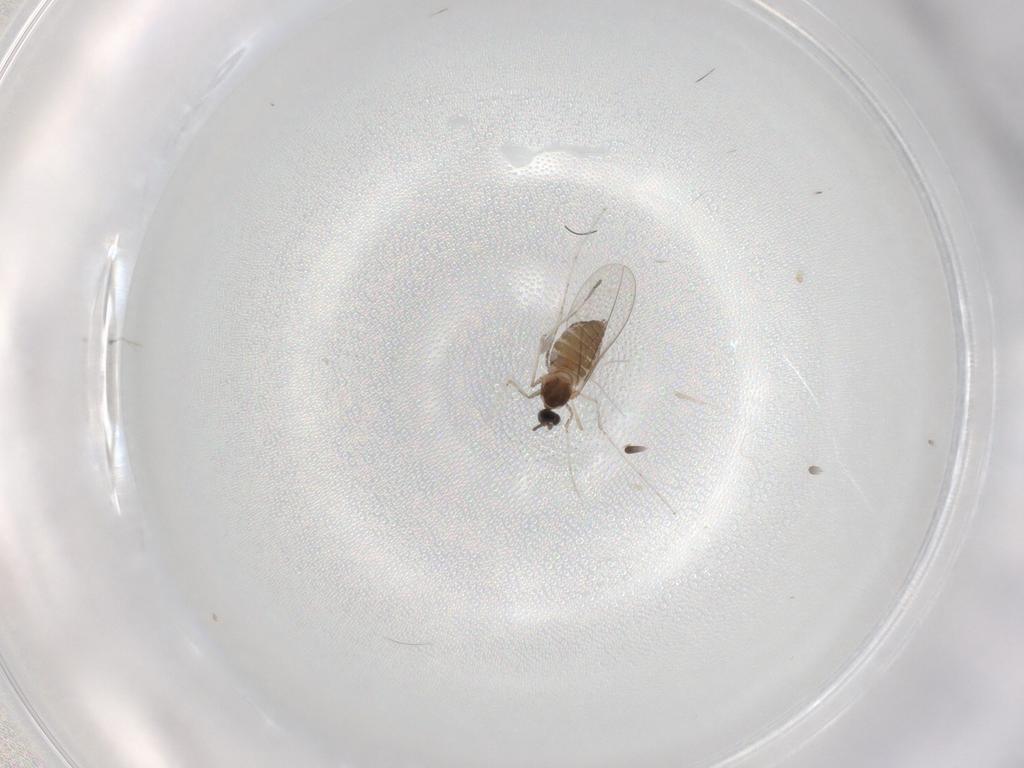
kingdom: Animalia
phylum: Arthropoda
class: Insecta
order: Diptera
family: Cecidomyiidae
